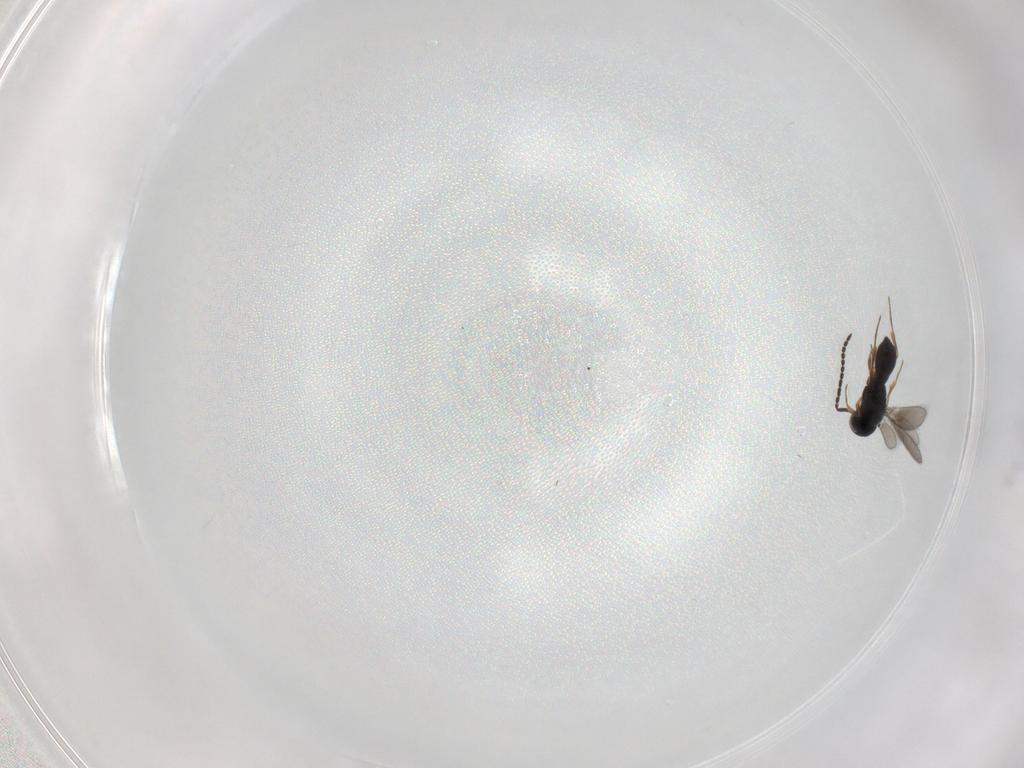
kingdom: Animalia
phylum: Arthropoda
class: Insecta
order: Hymenoptera
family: Scelionidae
